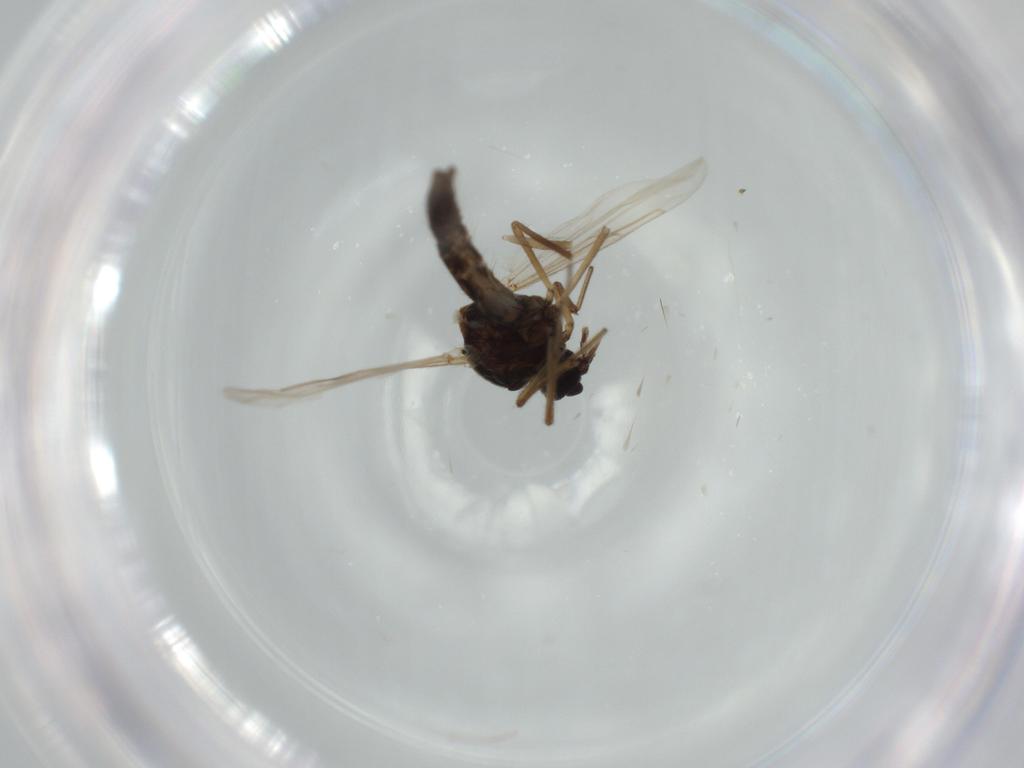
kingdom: Animalia
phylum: Arthropoda
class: Insecta
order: Diptera
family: Ceratopogonidae
